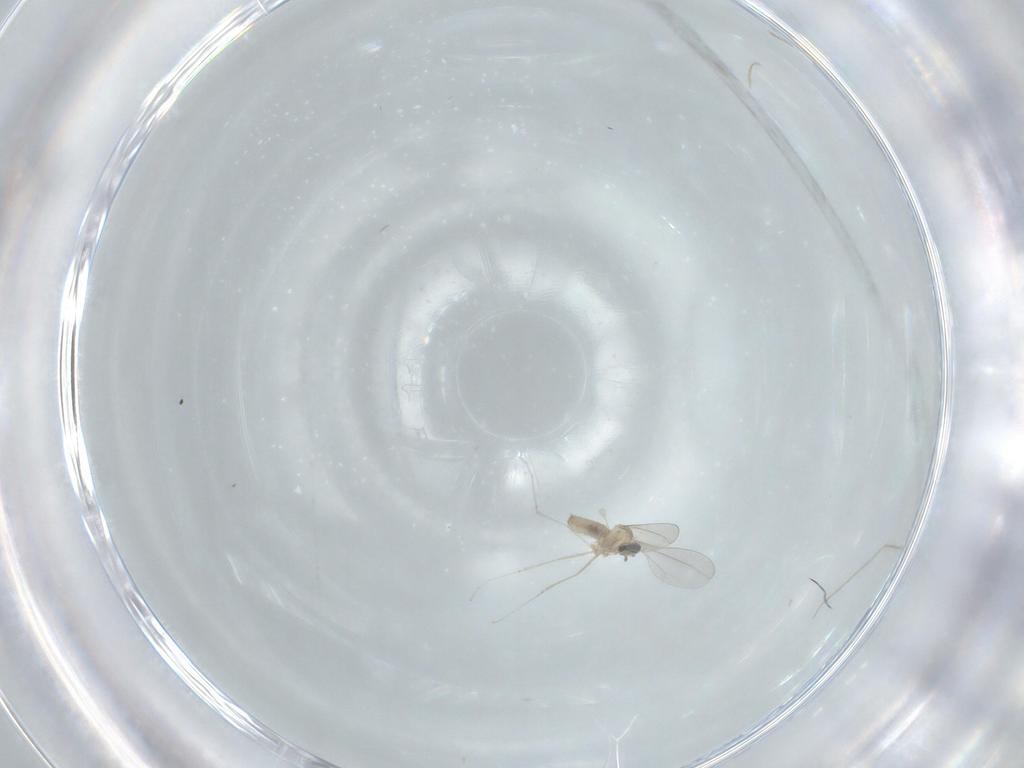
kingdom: Animalia
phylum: Arthropoda
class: Insecta
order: Diptera
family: Cecidomyiidae
